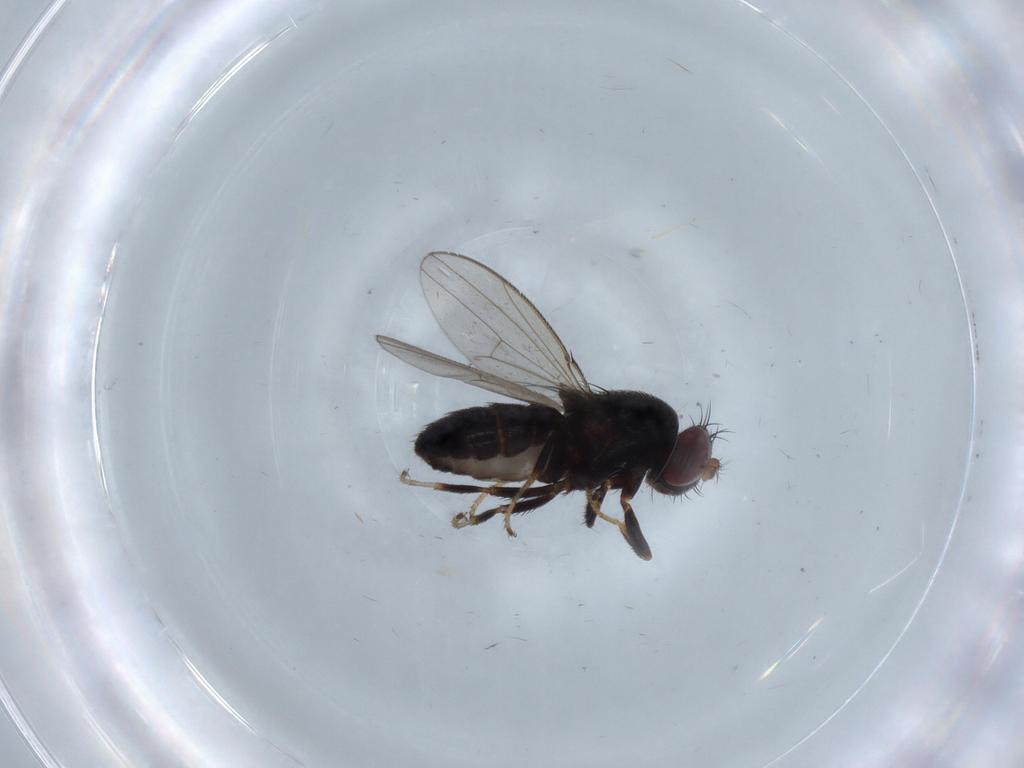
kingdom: Animalia
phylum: Arthropoda
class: Insecta
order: Diptera
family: Ephydridae
